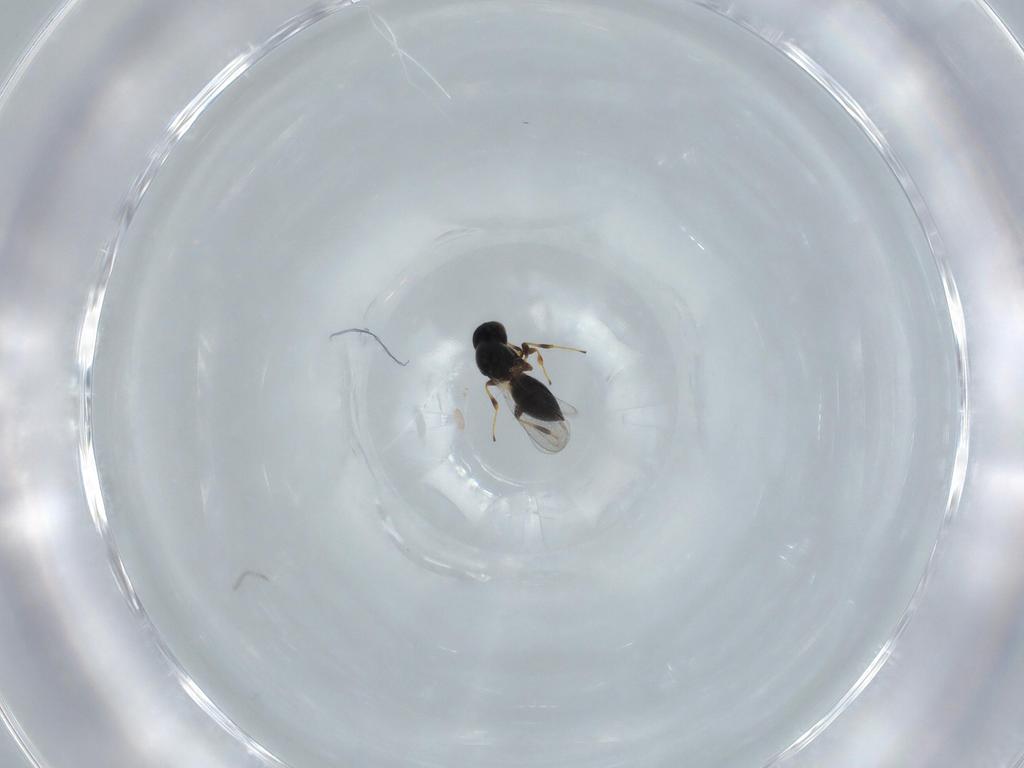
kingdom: Animalia
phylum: Arthropoda
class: Insecta
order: Hymenoptera
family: Platygastridae
